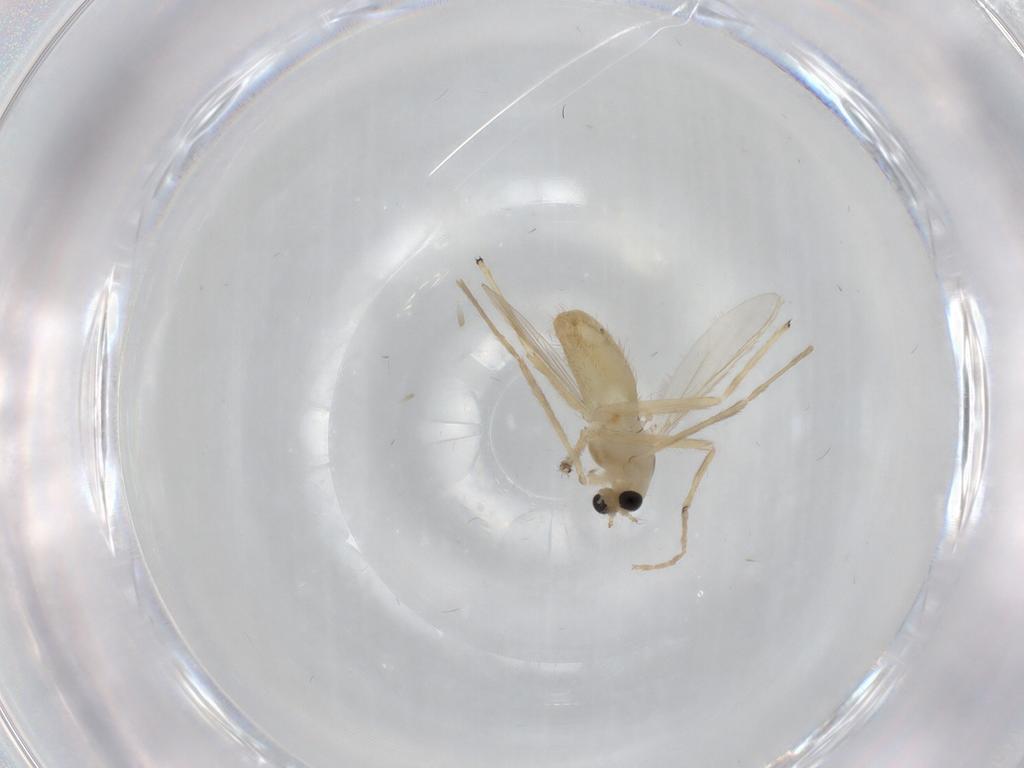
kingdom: Animalia
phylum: Arthropoda
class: Insecta
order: Diptera
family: Chironomidae
